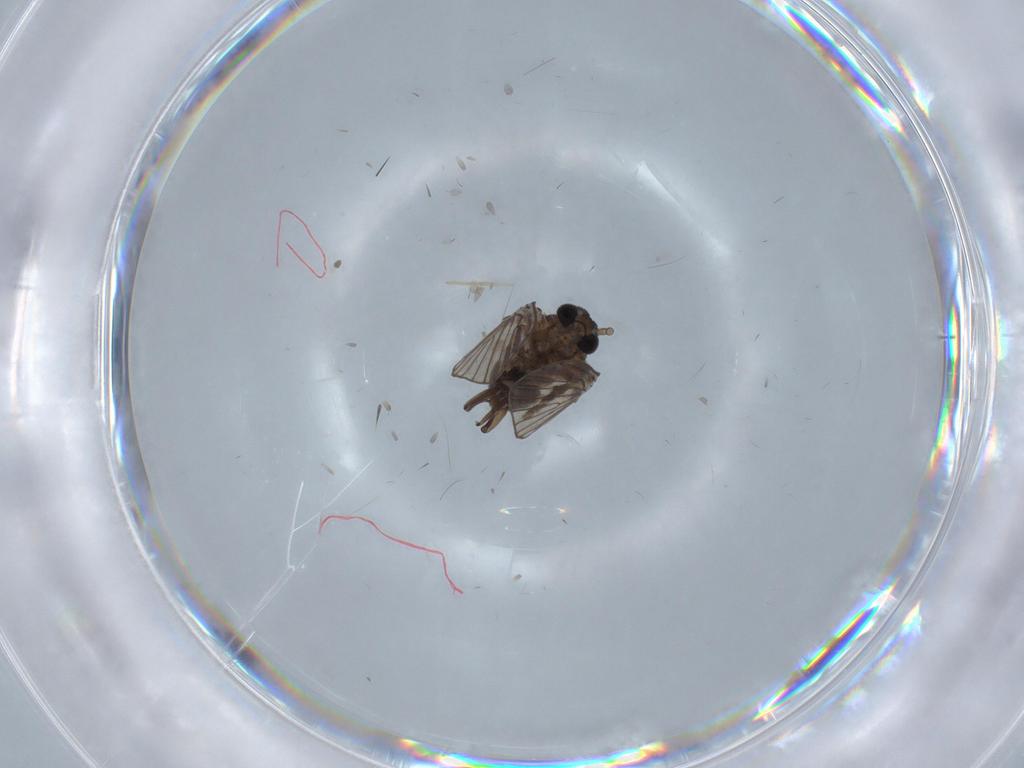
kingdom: Animalia
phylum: Arthropoda
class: Insecta
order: Diptera
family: Psychodidae
